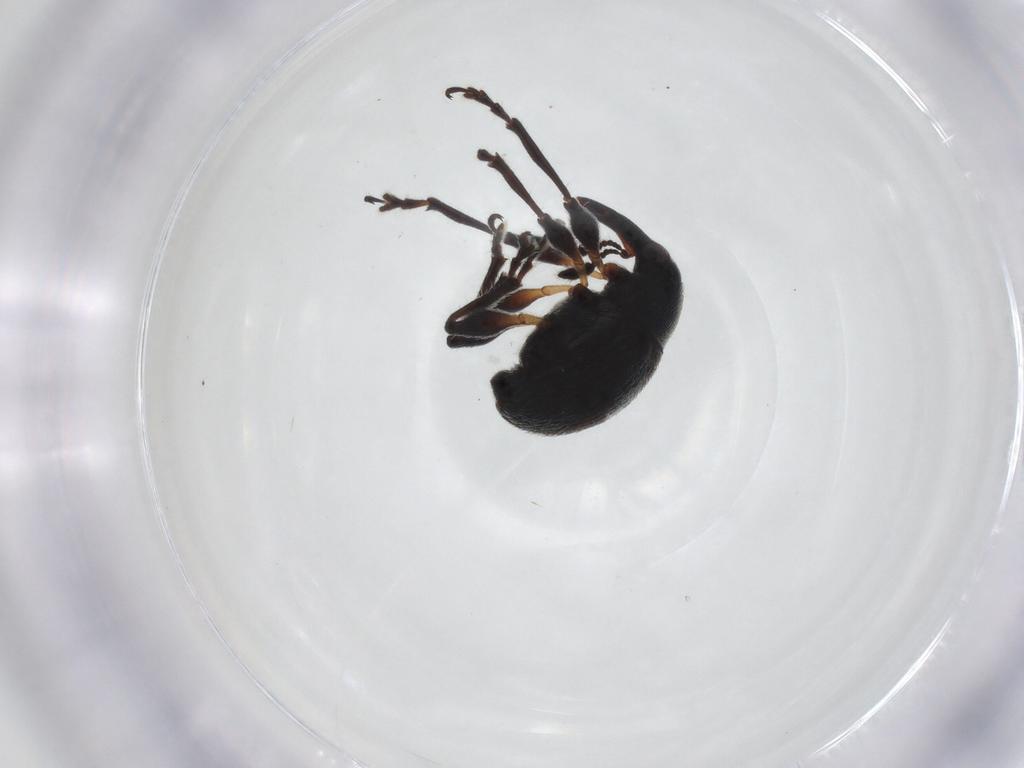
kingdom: Animalia
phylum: Arthropoda
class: Insecta
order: Coleoptera
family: Brentidae
